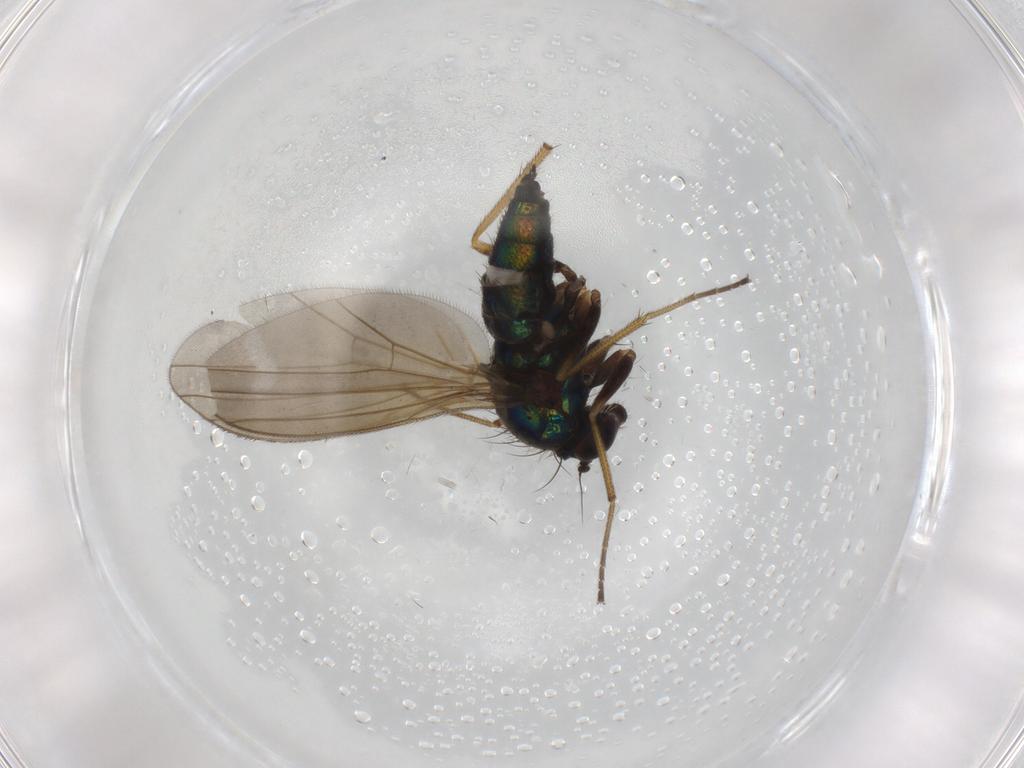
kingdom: Animalia
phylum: Arthropoda
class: Insecta
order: Diptera
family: Dolichopodidae
